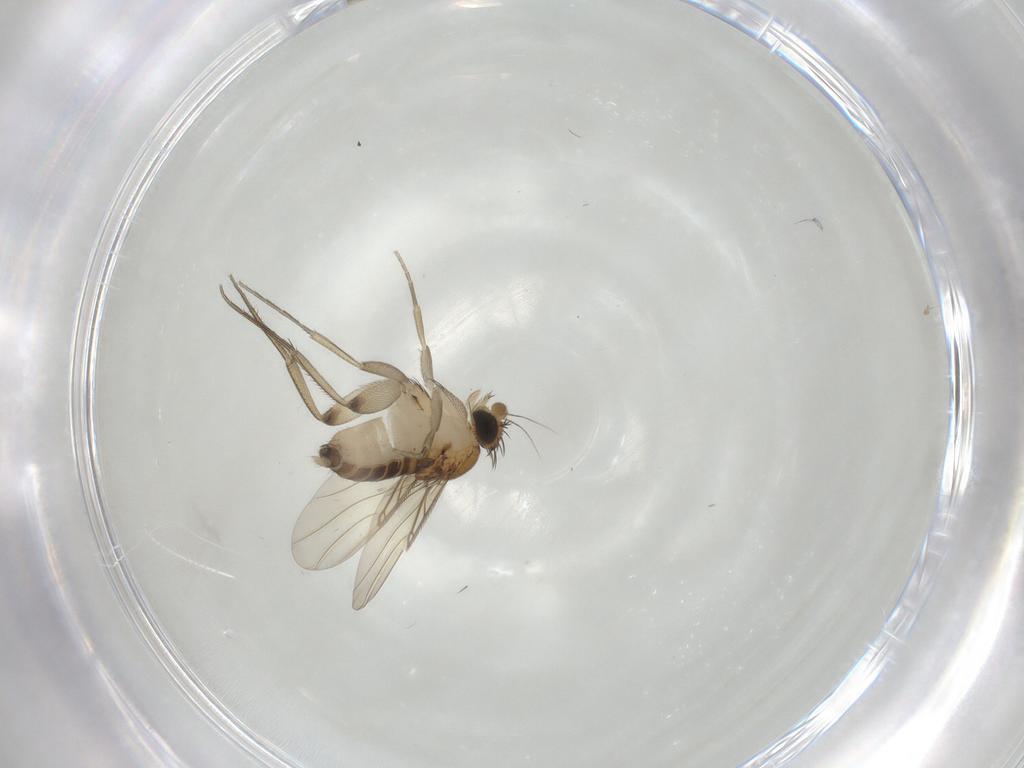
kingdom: Animalia
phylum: Arthropoda
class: Insecta
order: Diptera
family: Phoridae
